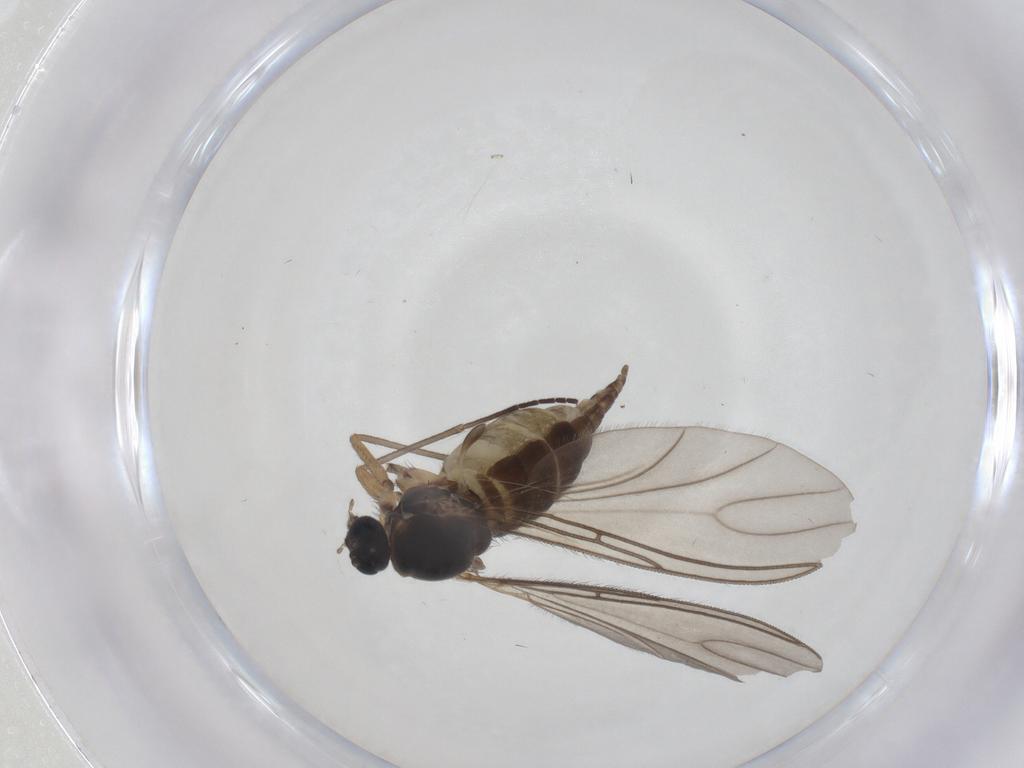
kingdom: Animalia
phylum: Arthropoda
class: Insecta
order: Diptera
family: Sciaridae
